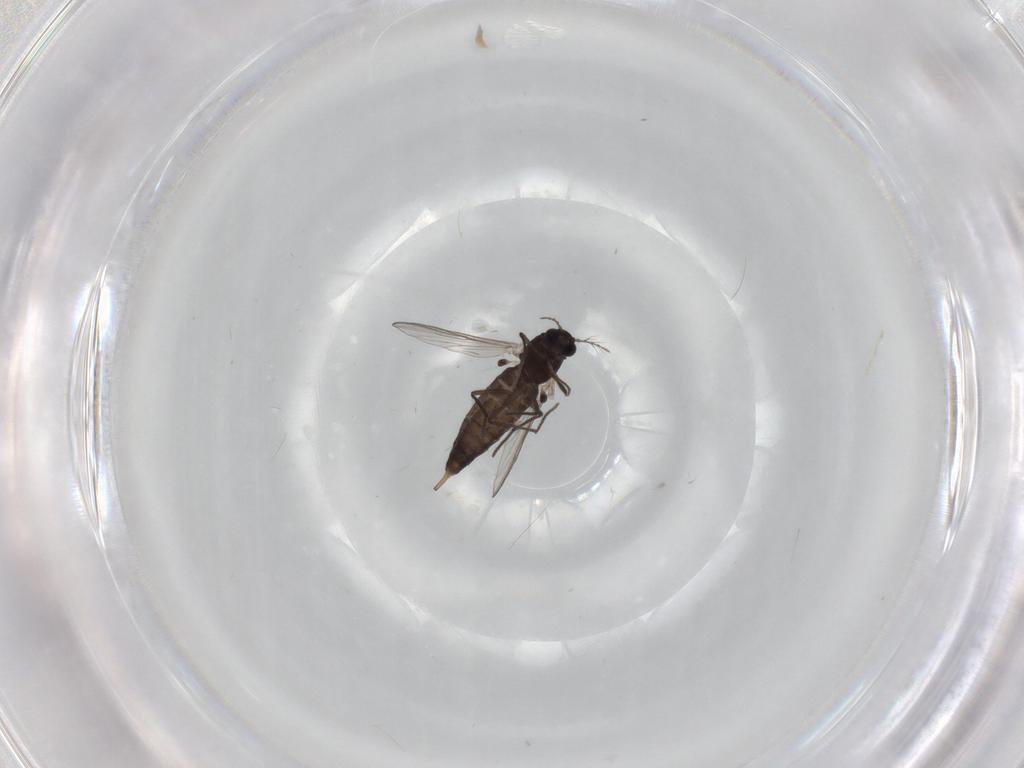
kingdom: Animalia
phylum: Arthropoda
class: Insecta
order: Diptera
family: Chironomidae
